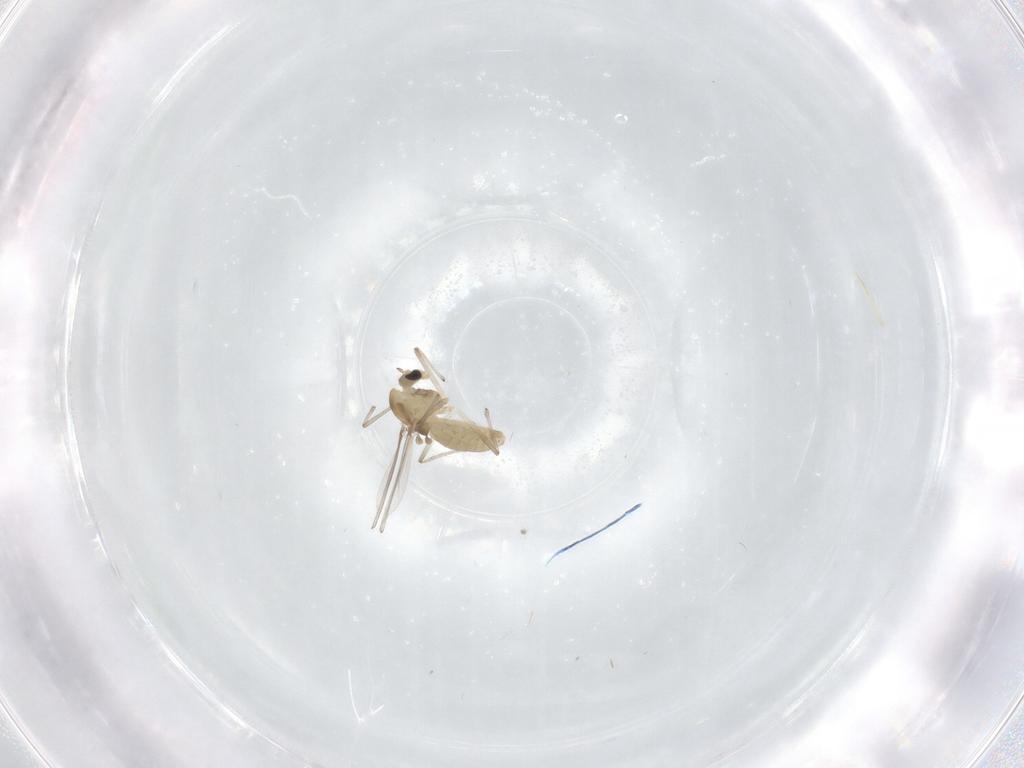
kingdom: Animalia
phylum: Arthropoda
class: Insecta
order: Diptera
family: Chironomidae
